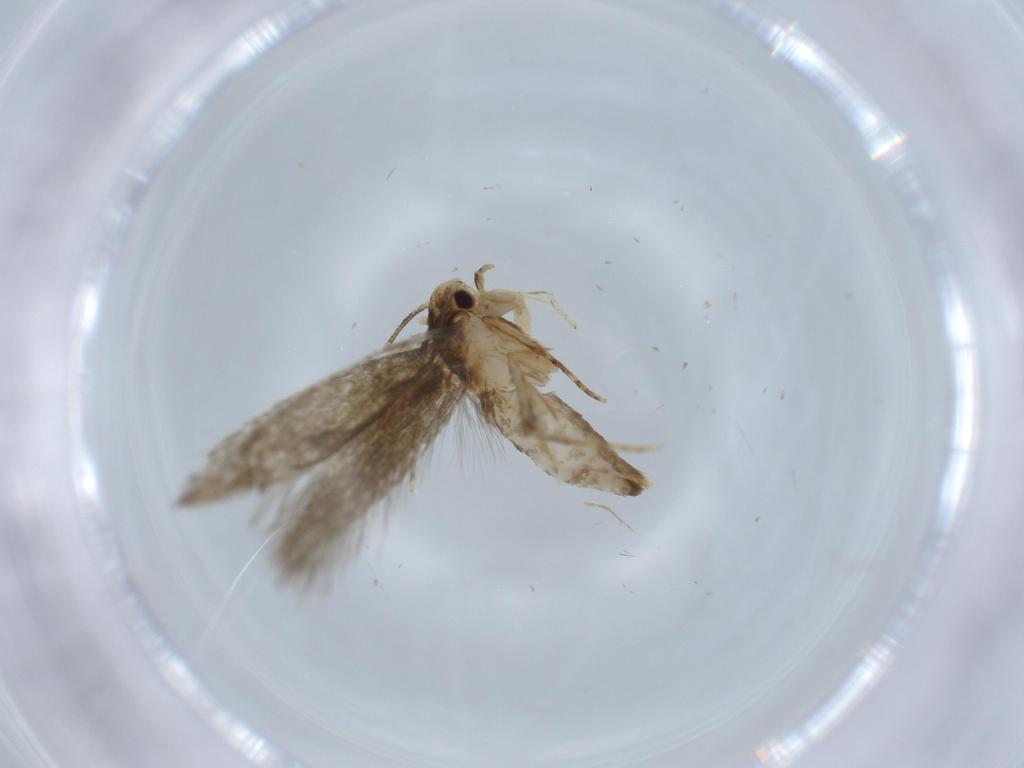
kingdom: Animalia
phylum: Arthropoda
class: Insecta
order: Lepidoptera
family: Tineidae
